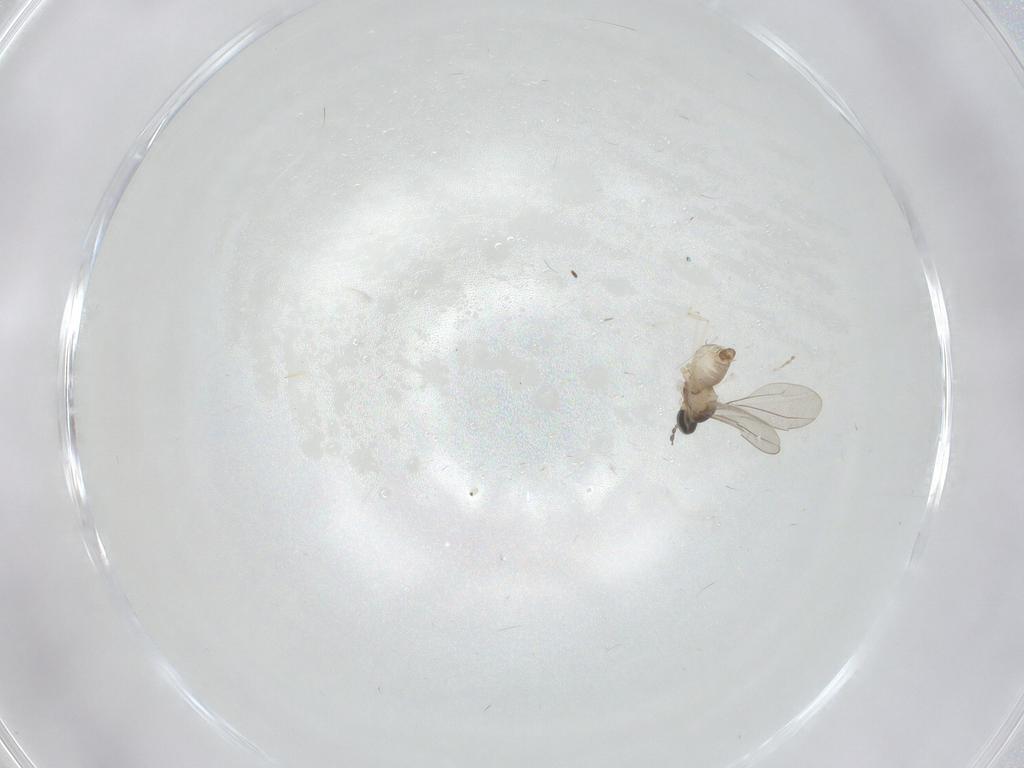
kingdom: Animalia
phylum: Arthropoda
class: Insecta
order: Diptera
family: Cecidomyiidae
